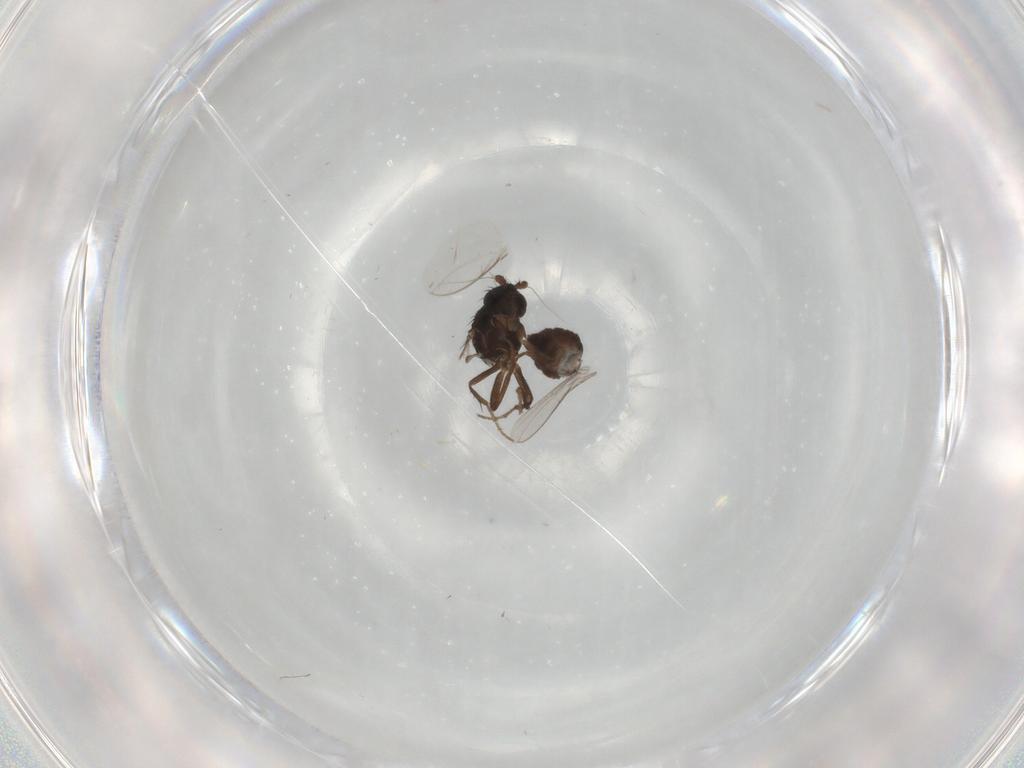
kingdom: Animalia
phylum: Arthropoda
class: Insecta
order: Diptera
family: Sphaeroceridae
